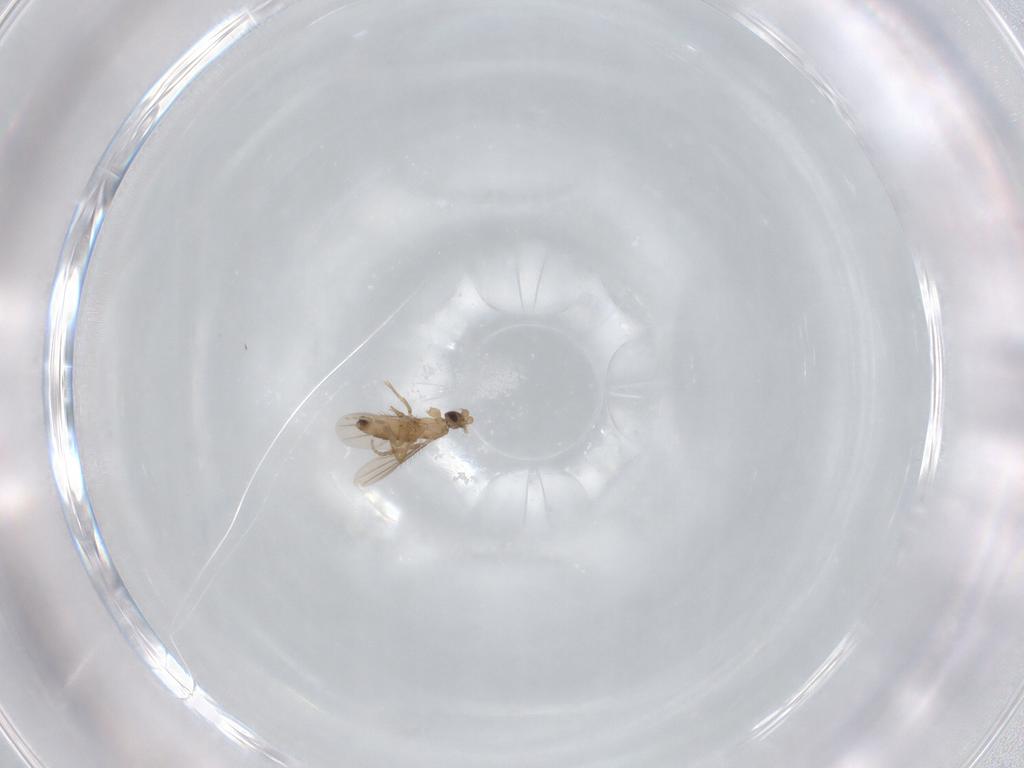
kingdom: Animalia
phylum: Arthropoda
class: Insecta
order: Diptera
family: Phoridae
